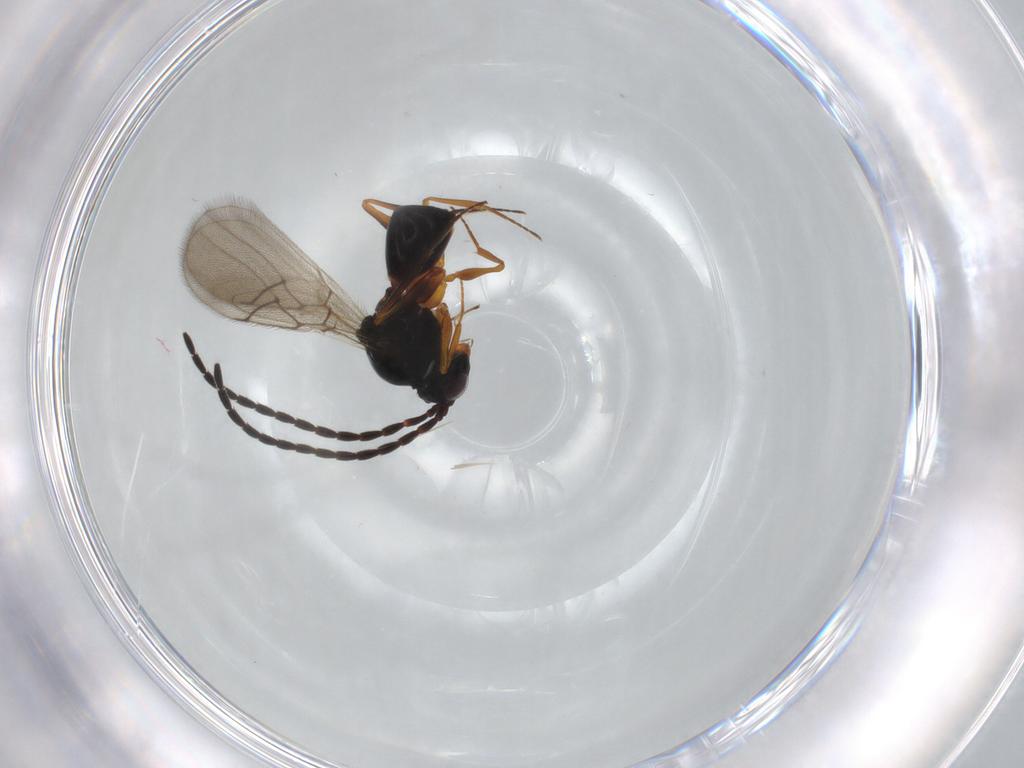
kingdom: Animalia
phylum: Arthropoda
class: Insecta
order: Hymenoptera
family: Figitidae
